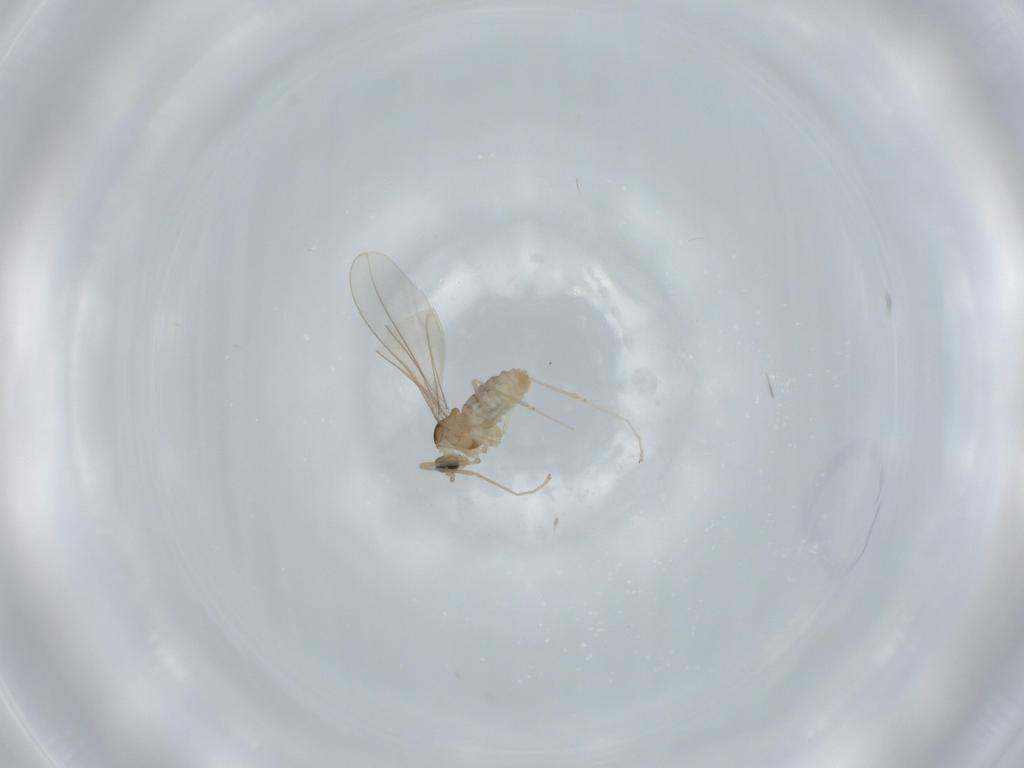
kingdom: Animalia
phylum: Arthropoda
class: Insecta
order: Diptera
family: Cecidomyiidae
